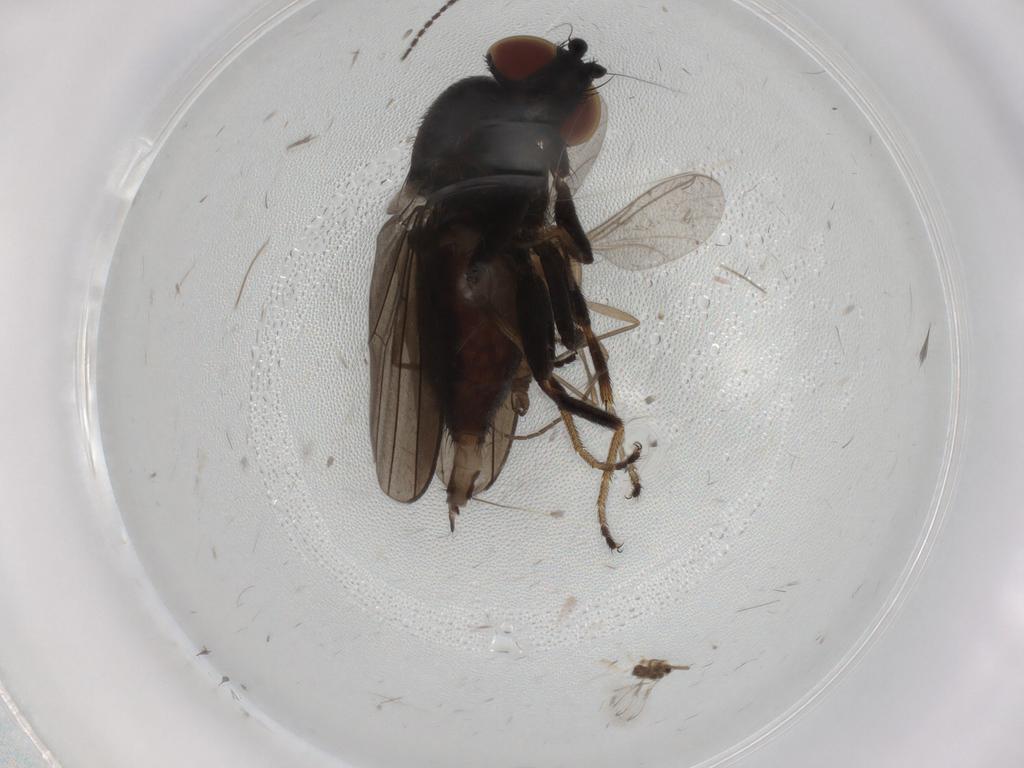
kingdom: Animalia
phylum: Arthropoda
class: Insecta
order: Diptera
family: Milichiidae
